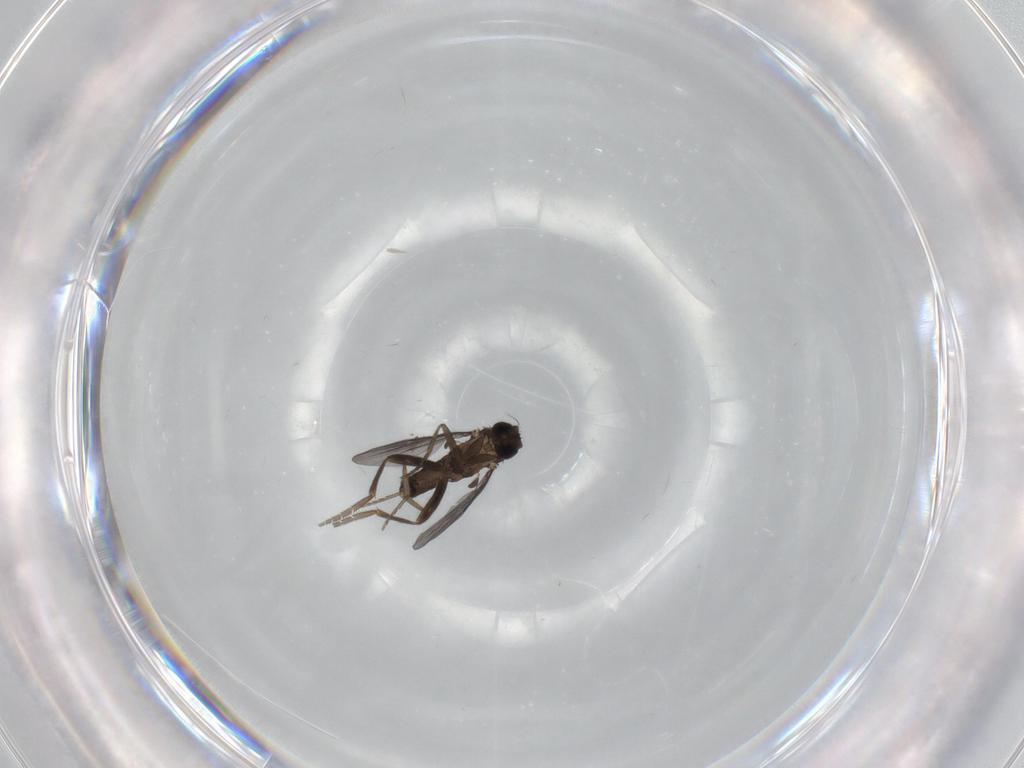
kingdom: Animalia
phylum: Arthropoda
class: Insecta
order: Diptera
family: Phoridae
